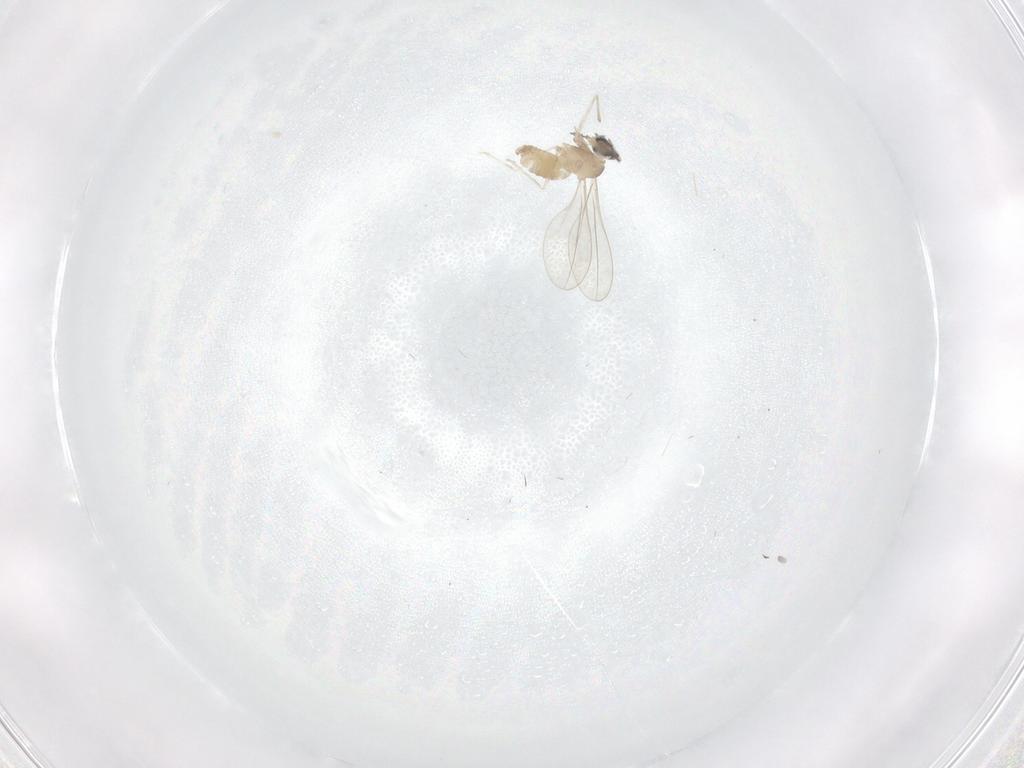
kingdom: Animalia
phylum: Arthropoda
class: Insecta
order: Diptera
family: Cecidomyiidae
